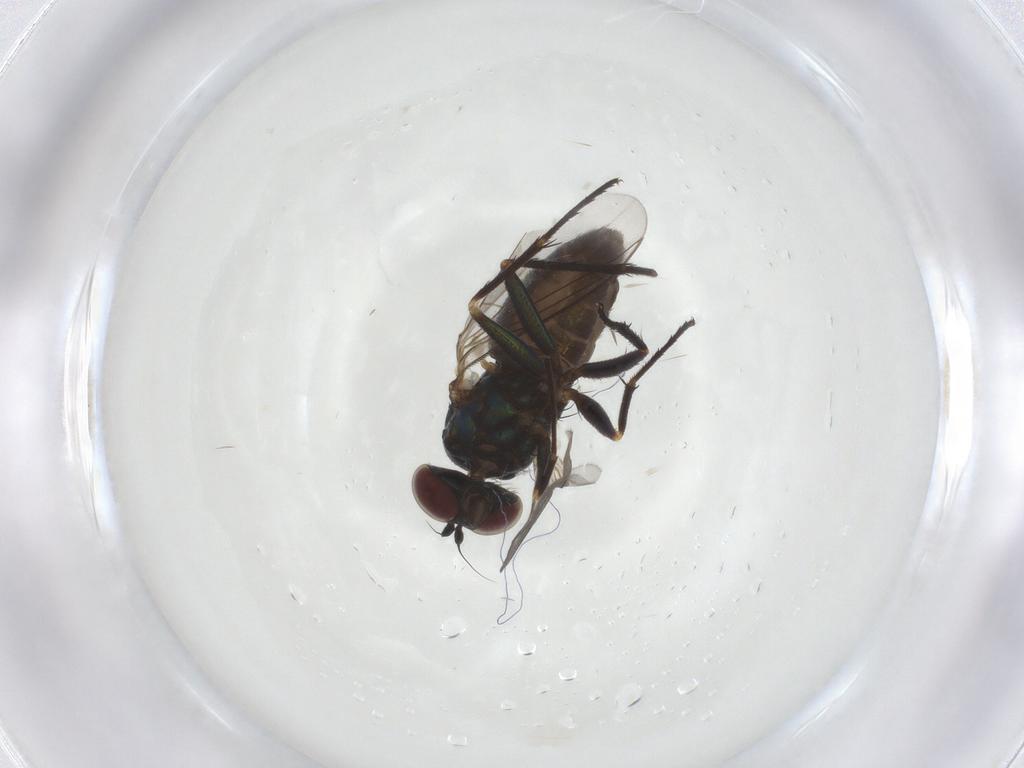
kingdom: Animalia
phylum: Arthropoda
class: Insecta
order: Diptera
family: Dolichopodidae
